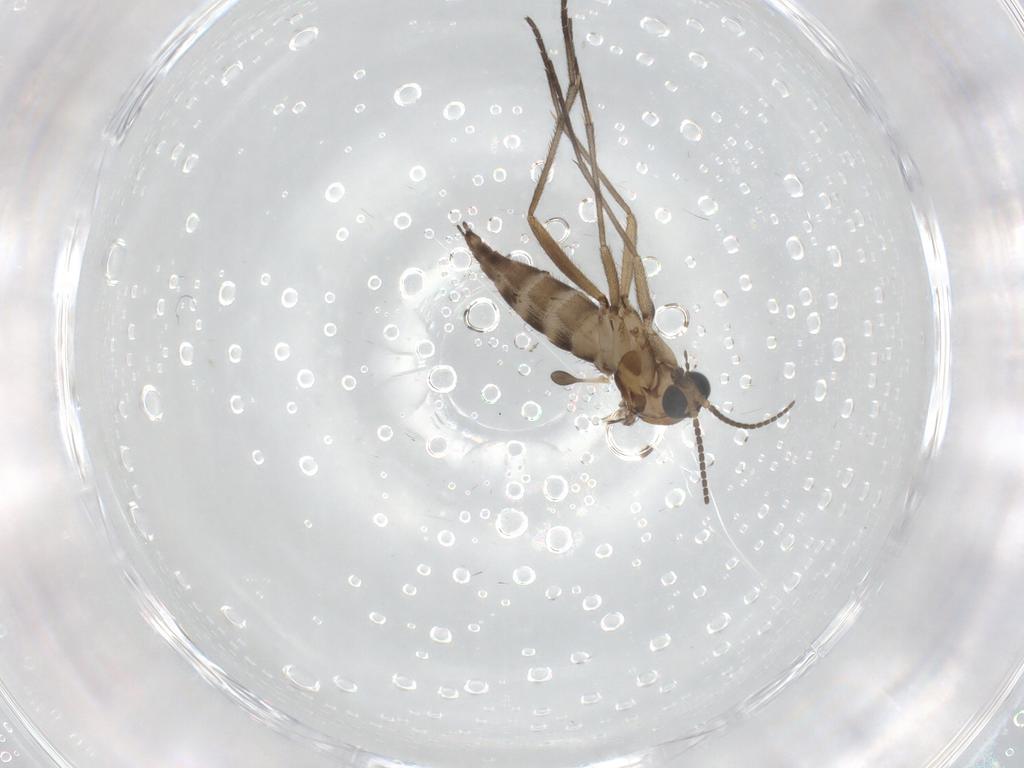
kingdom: Animalia
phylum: Arthropoda
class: Insecta
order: Diptera
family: Sciaridae
